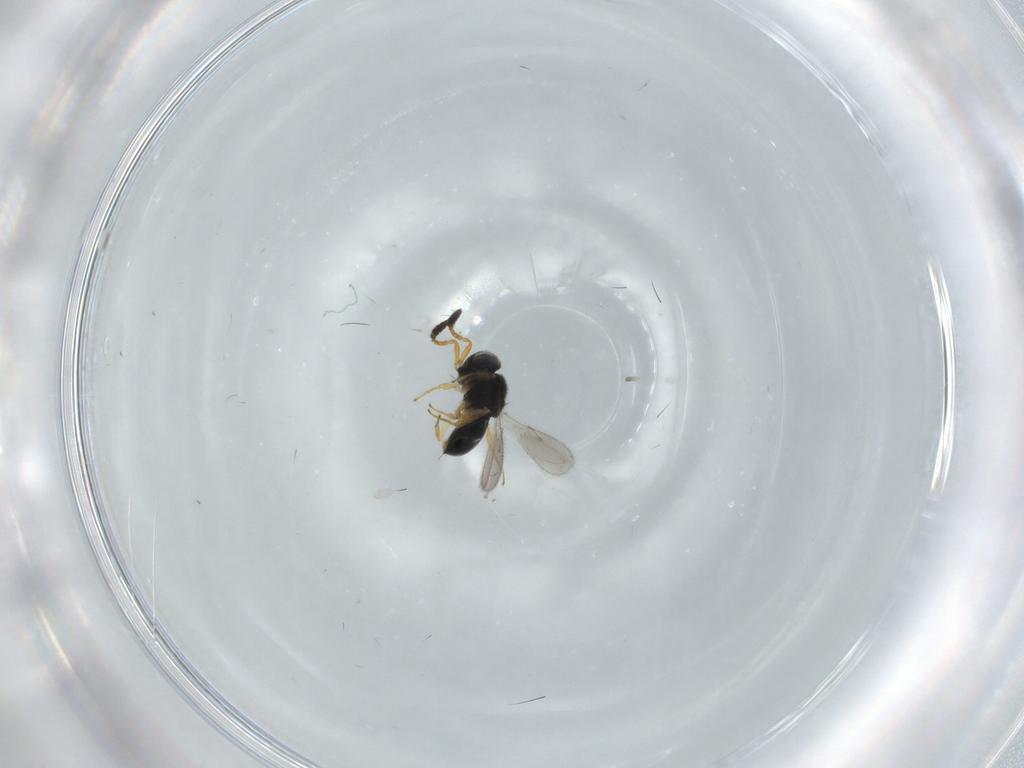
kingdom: Animalia
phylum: Arthropoda
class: Insecta
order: Hymenoptera
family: Scelionidae
